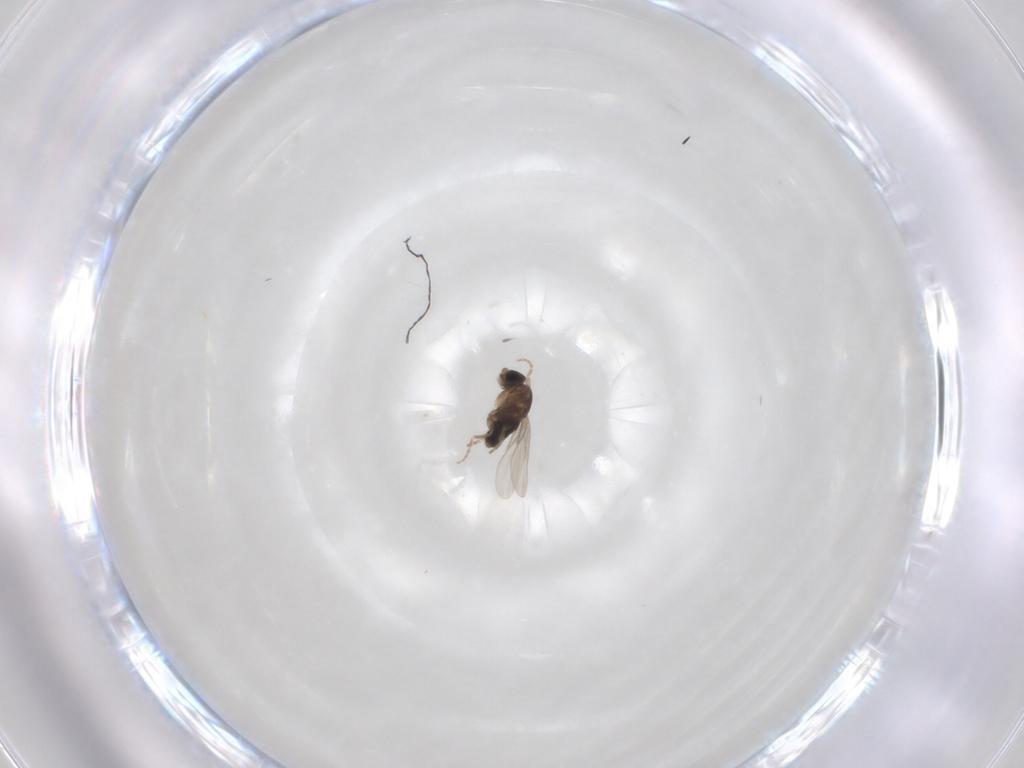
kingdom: Animalia
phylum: Arthropoda
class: Insecta
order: Diptera
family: Phoridae
